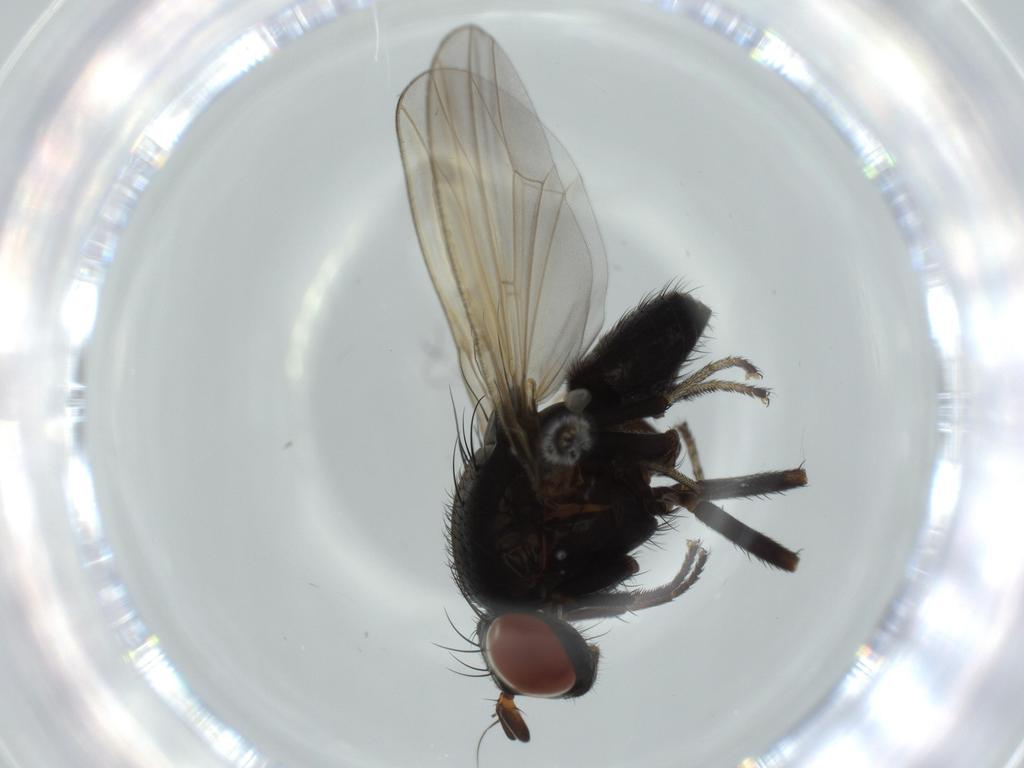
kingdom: Animalia
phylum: Arthropoda
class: Insecta
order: Diptera
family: Lauxaniidae
